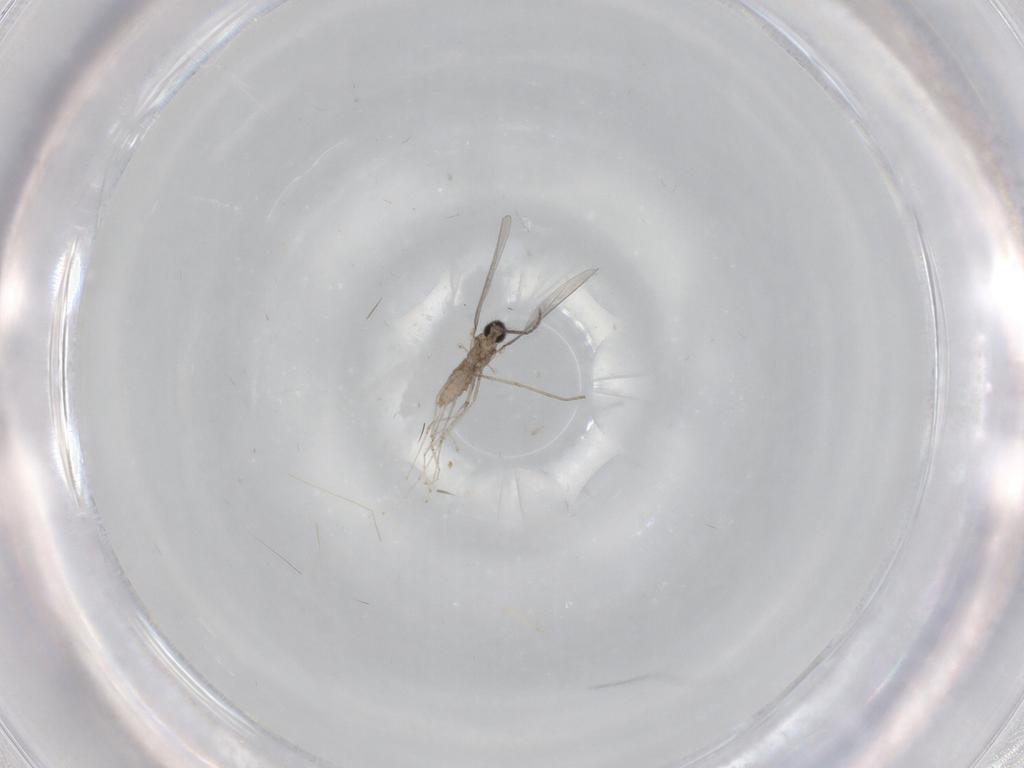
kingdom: Animalia
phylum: Arthropoda
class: Insecta
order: Diptera
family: Cecidomyiidae
